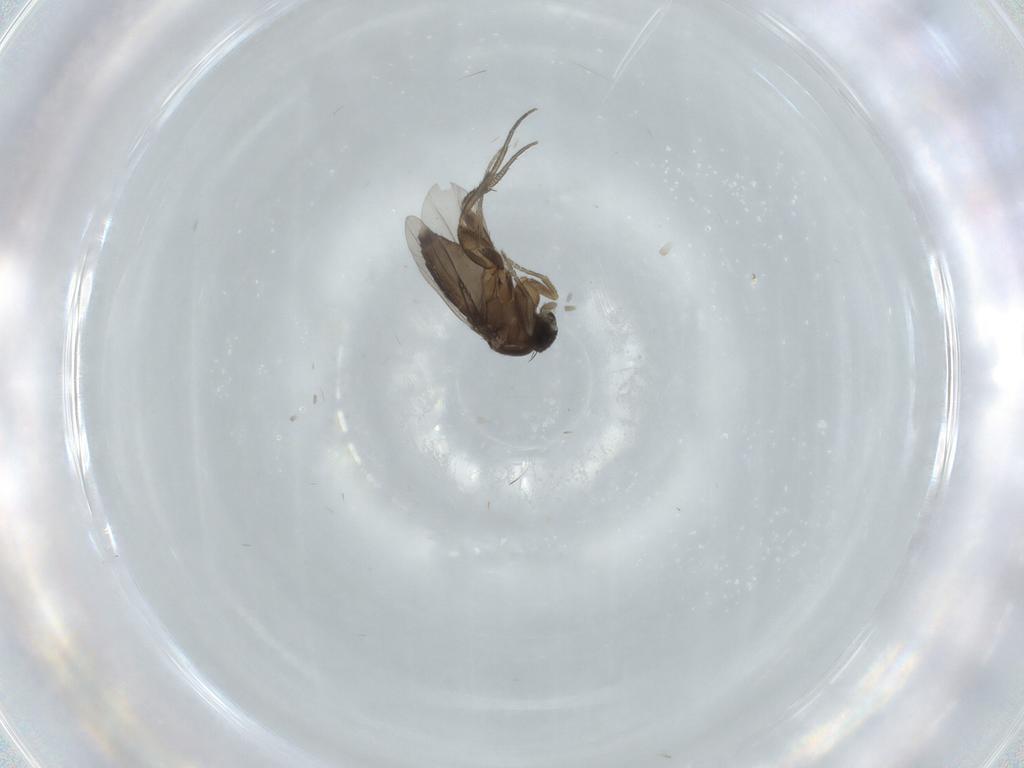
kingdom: Animalia
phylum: Arthropoda
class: Insecta
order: Diptera
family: Phoridae
